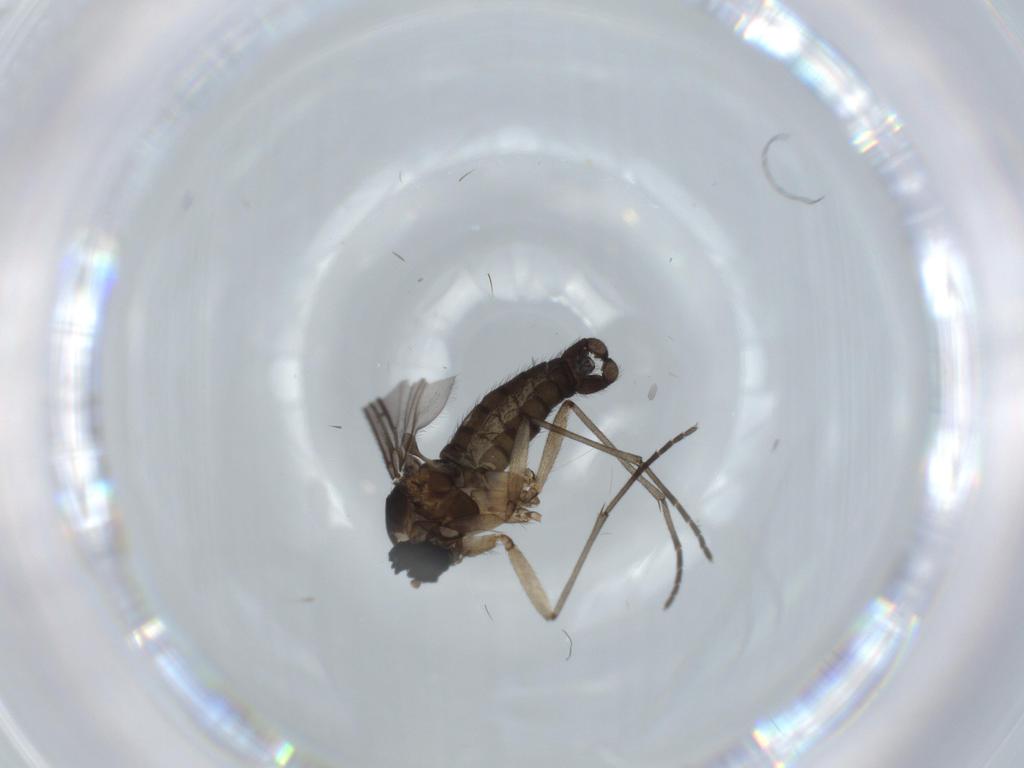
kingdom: Animalia
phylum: Arthropoda
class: Insecta
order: Diptera
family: Sciaridae
